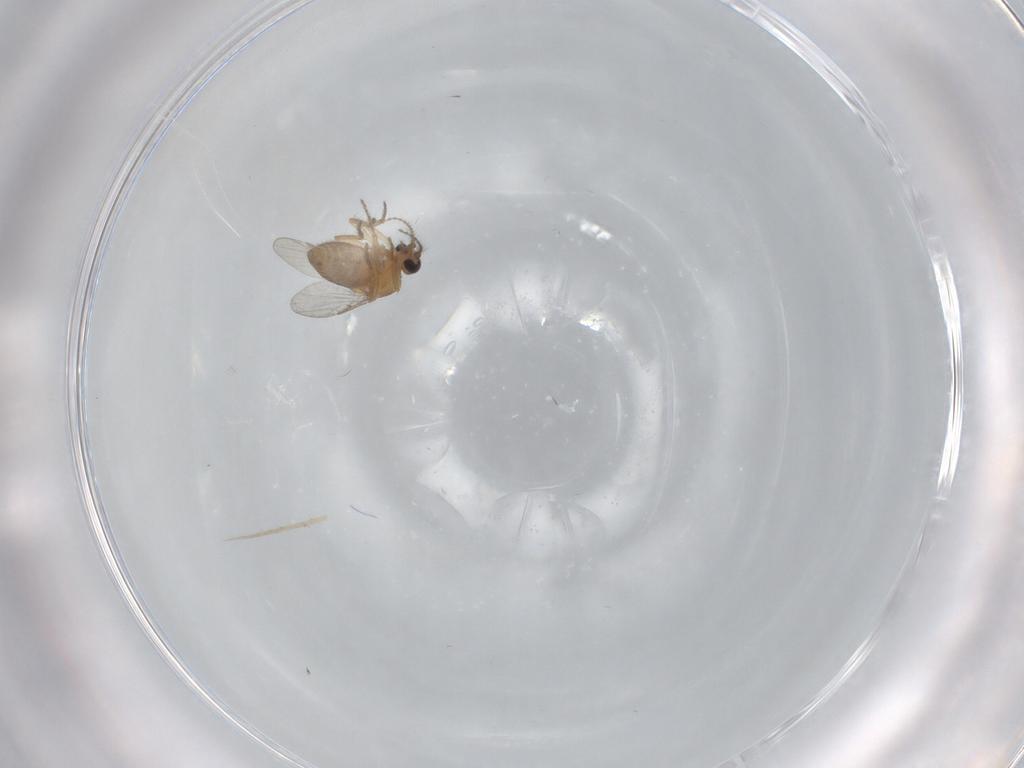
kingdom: Animalia
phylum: Arthropoda
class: Insecta
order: Diptera
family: Ceratopogonidae
